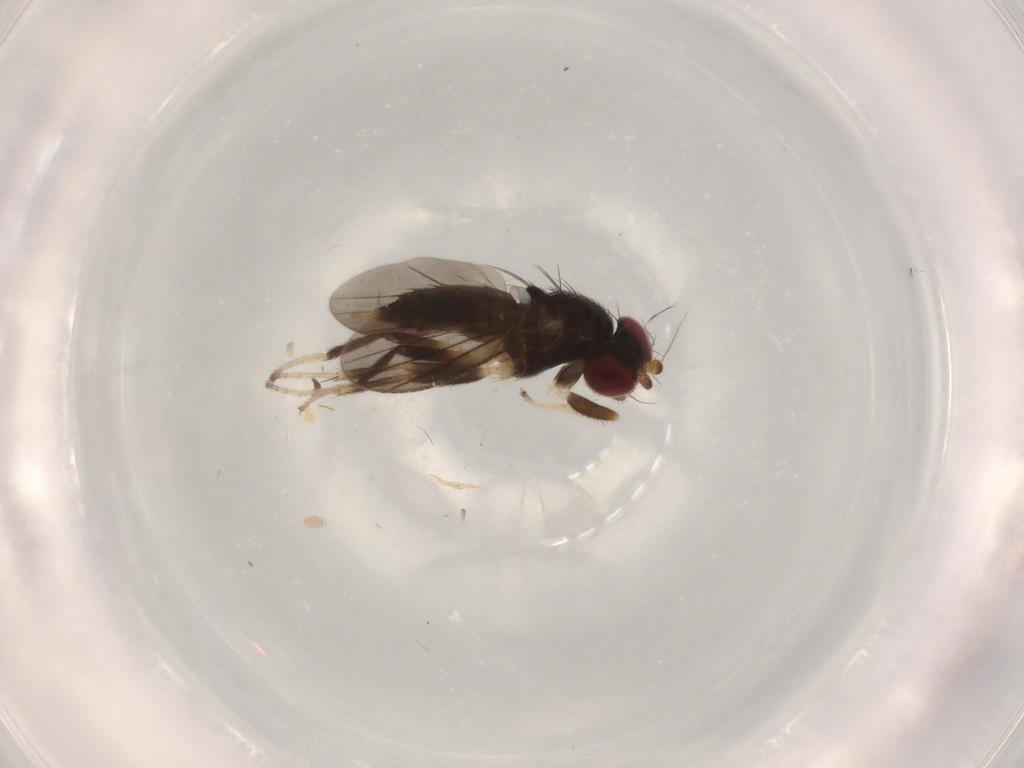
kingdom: Animalia
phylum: Arthropoda
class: Insecta
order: Diptera
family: Clusiidae
